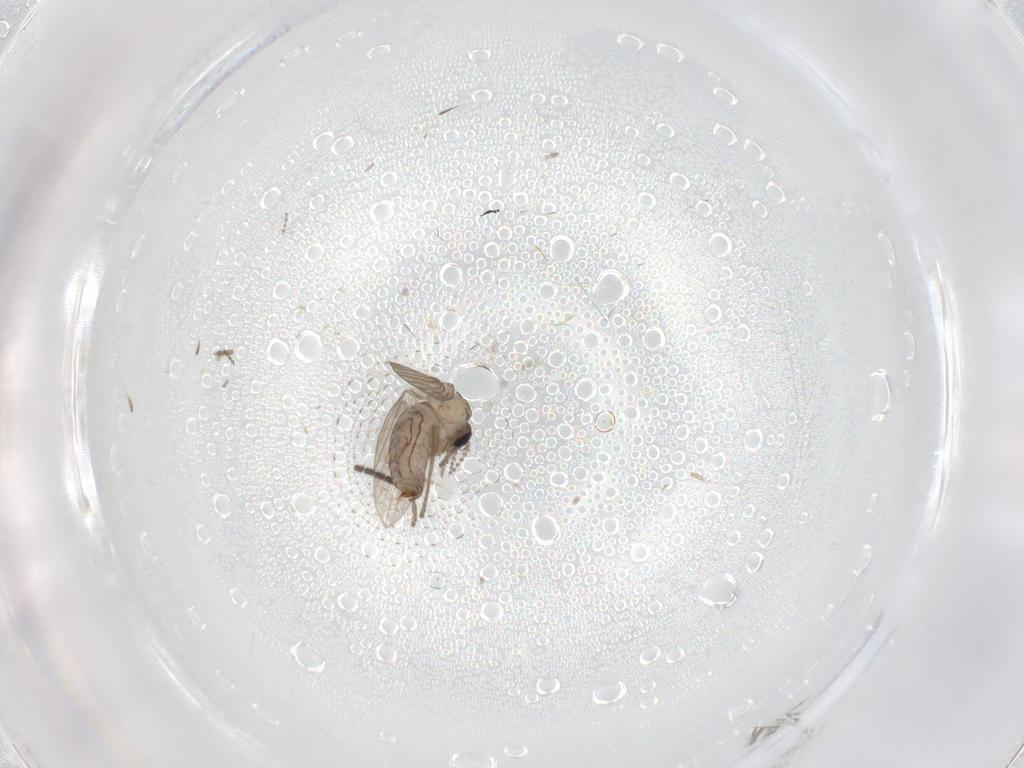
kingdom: Animalia
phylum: Arthropoda
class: Insecta
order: Diptera
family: Psychodidae
